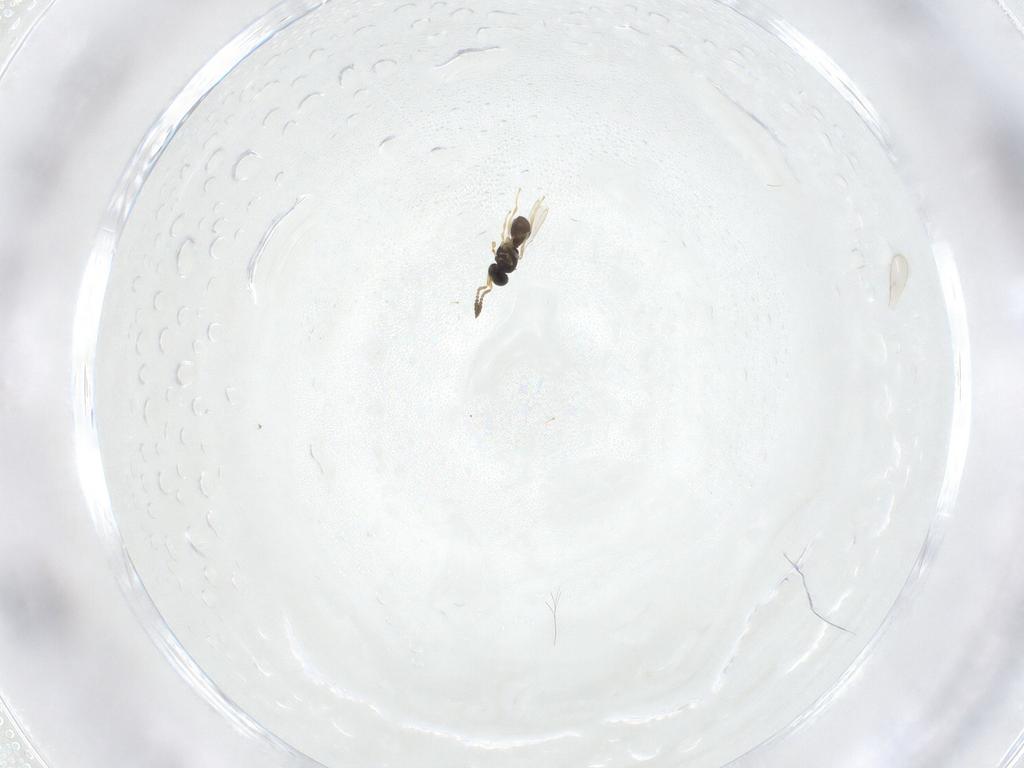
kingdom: Animalia
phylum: Arthropoda
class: Insecta
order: Hymenoptera
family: Scelionidae
